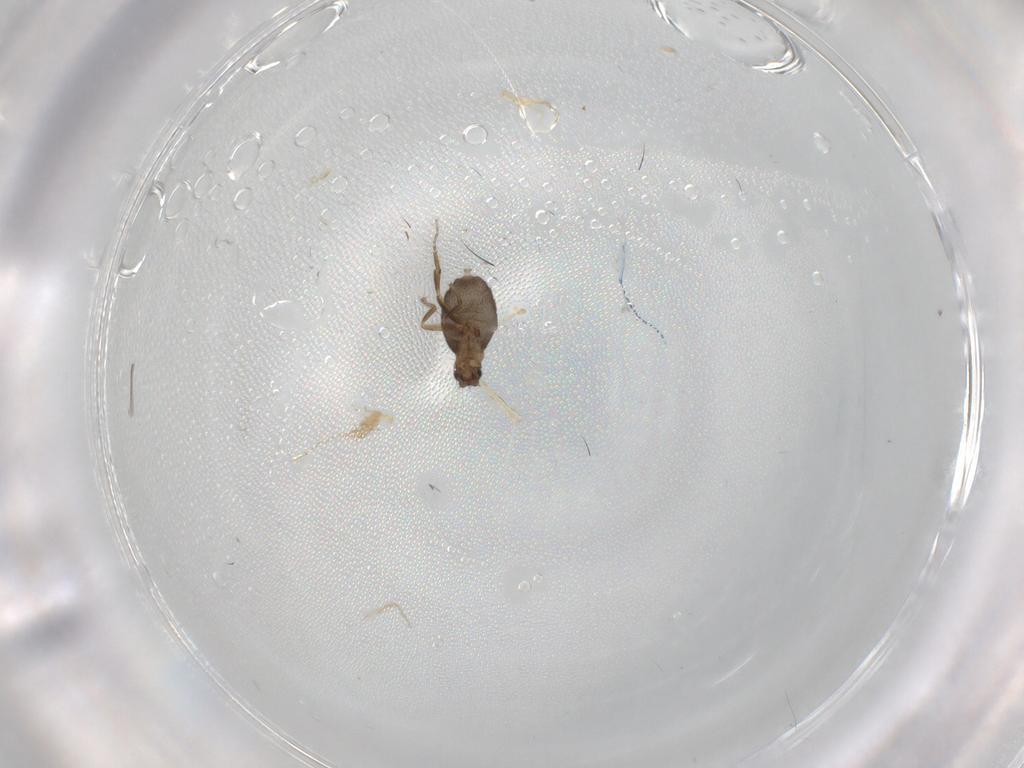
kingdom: Animalia
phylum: Arthropoda
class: Insecta
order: Diptera
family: Phoridae
